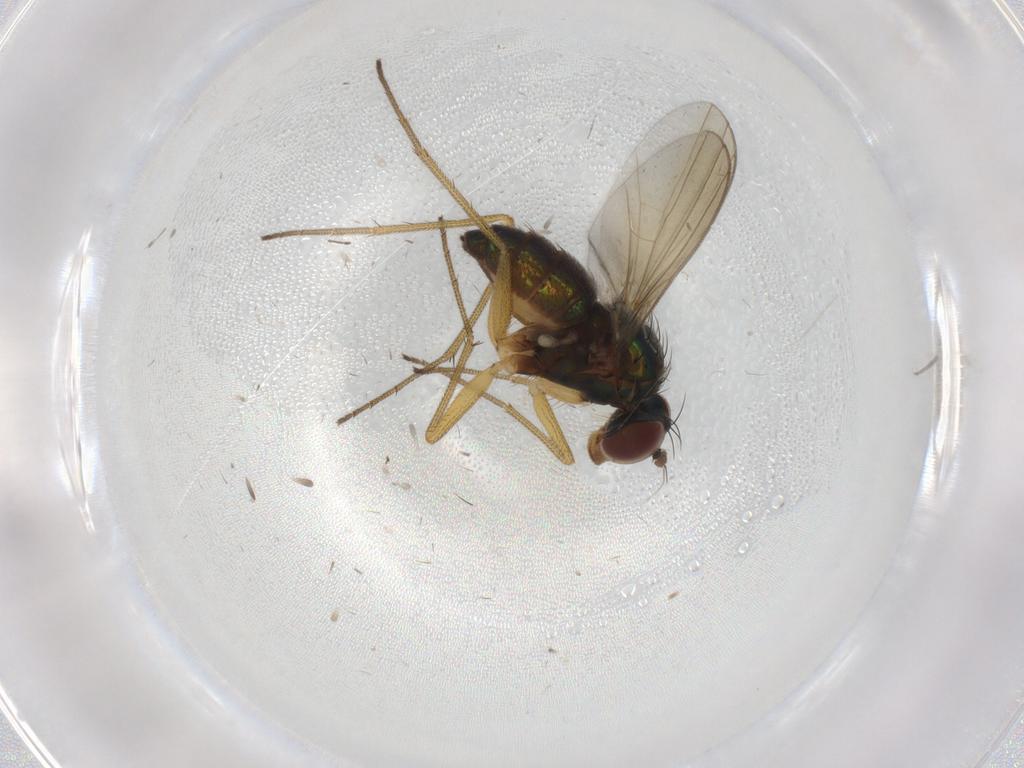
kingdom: Animalia
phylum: Arthropoda
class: Insecta
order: Diptera
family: Dolichopodidae
